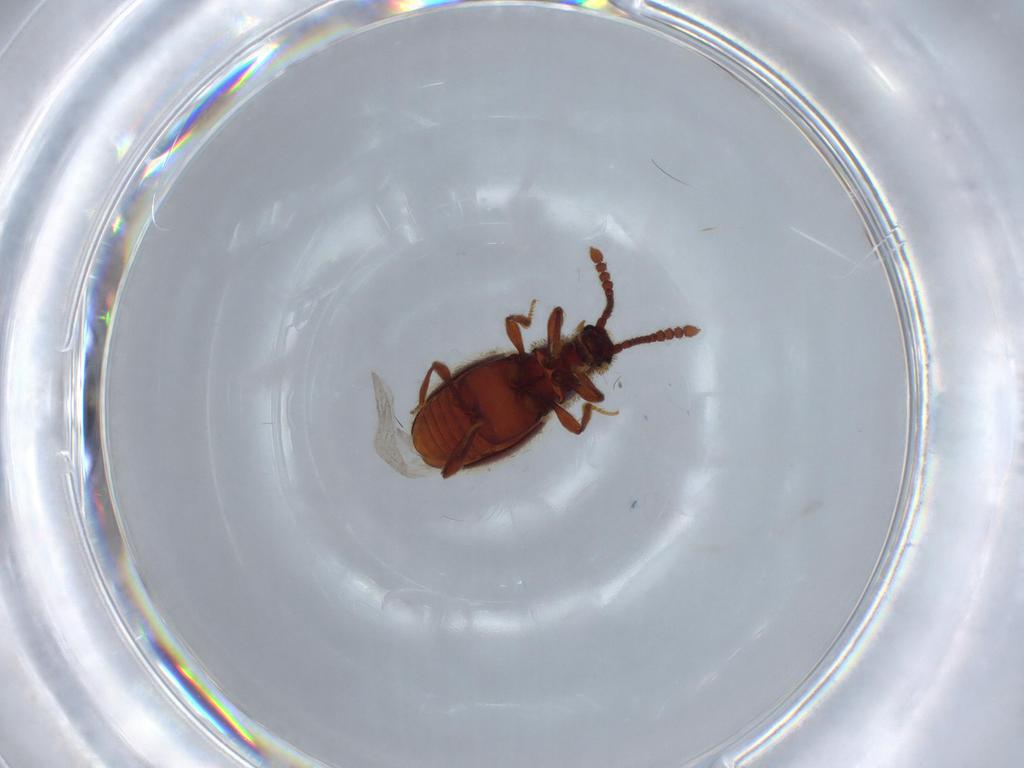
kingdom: Animalia
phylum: Arthropoda
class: Insecta
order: Coleoptera
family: Staphylinidae
